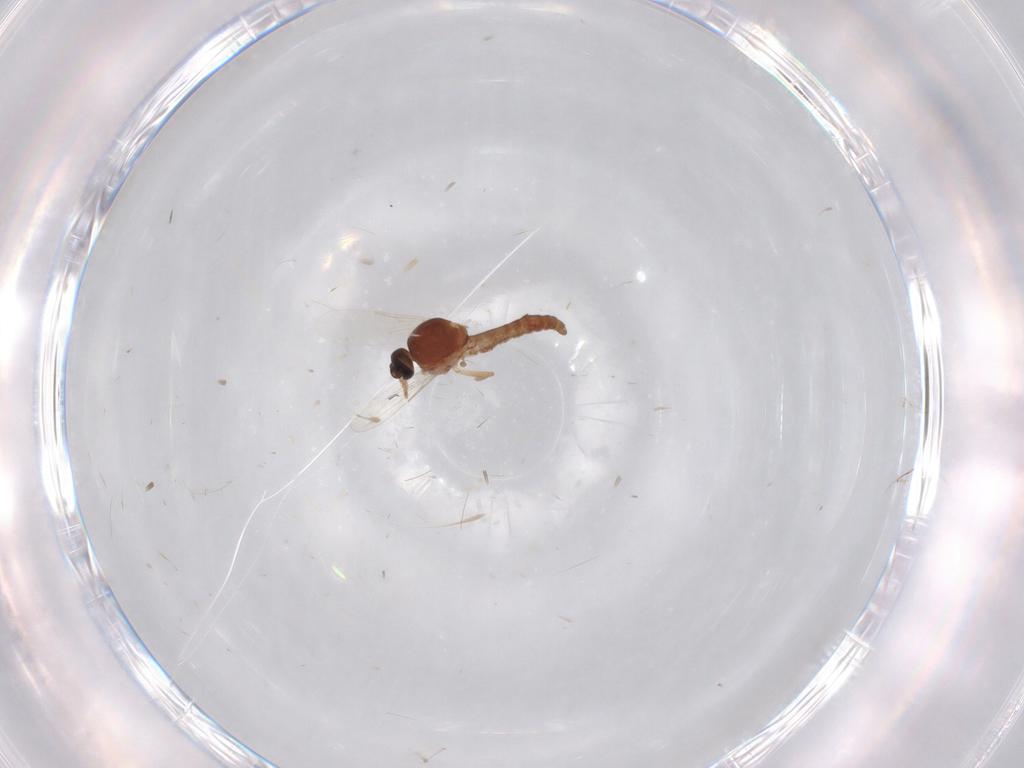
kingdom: Animalia
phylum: Arthropoda
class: Insecta
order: Diptera
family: Ceratopogonidae
